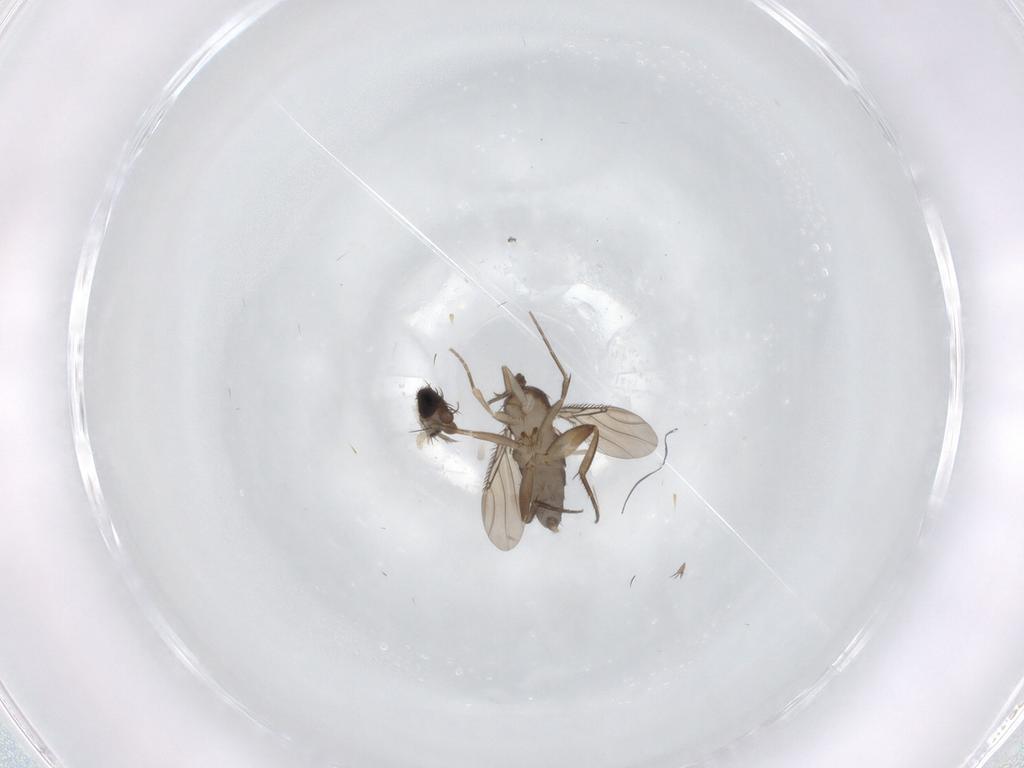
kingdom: Animalia
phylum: Arthropoda
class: Insecta
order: Diptera
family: Phoridae
